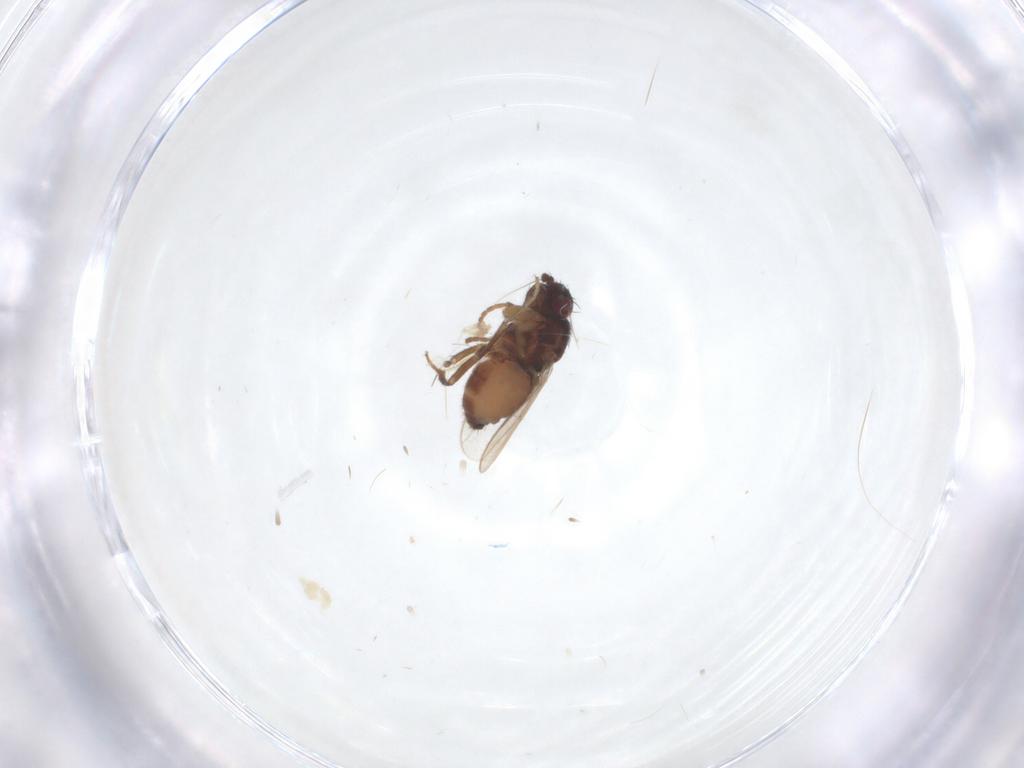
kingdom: Animalia
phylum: Arthropoda
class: Insecta
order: Diptera
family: Sphaeroceridae
